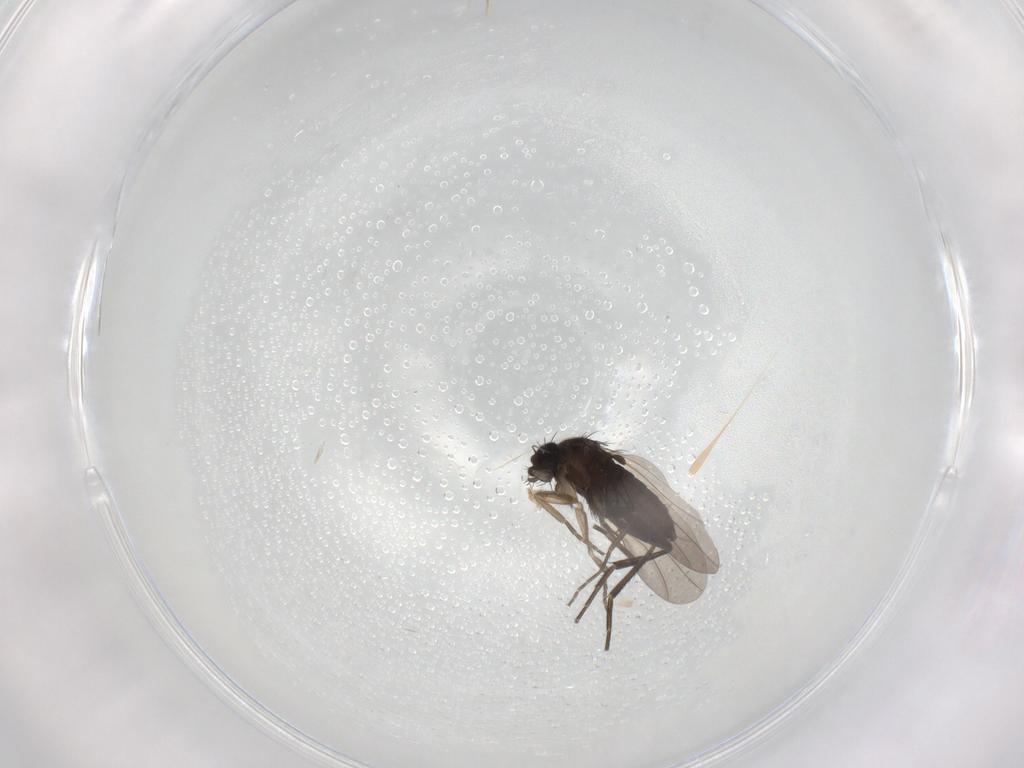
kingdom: Animalia
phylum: Arthropoda
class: Insecta
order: Diptera
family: Phoridae
